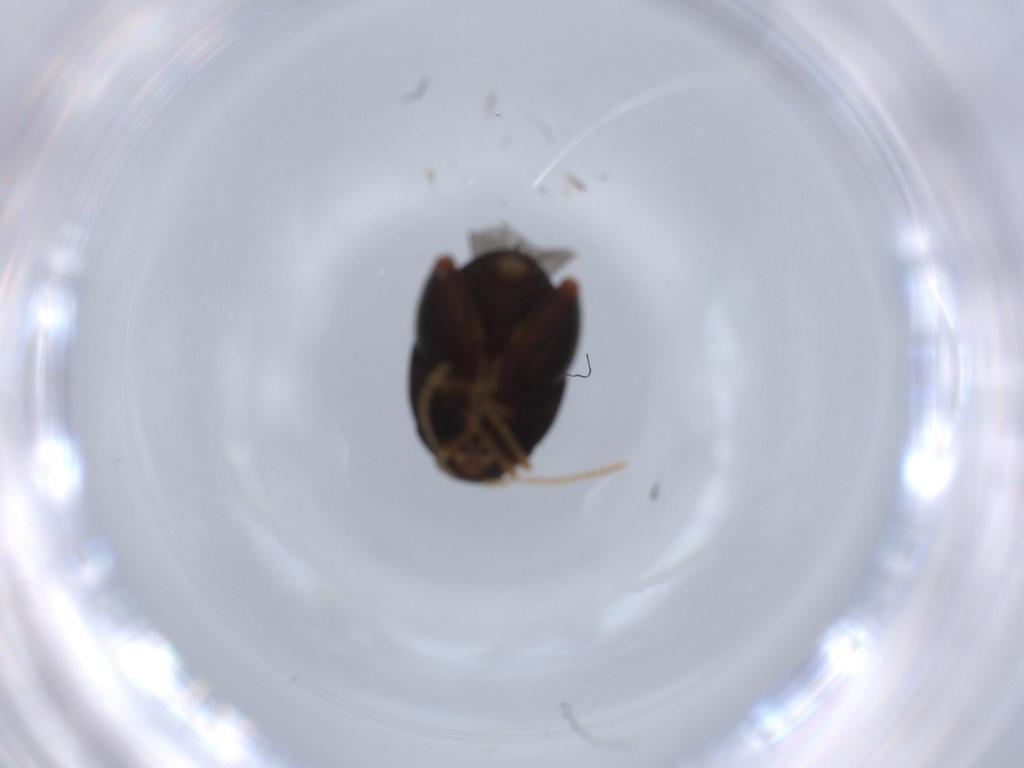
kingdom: Animalia
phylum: Arthropoda
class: Insecta
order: Coleoptera
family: Chrysomelidae
